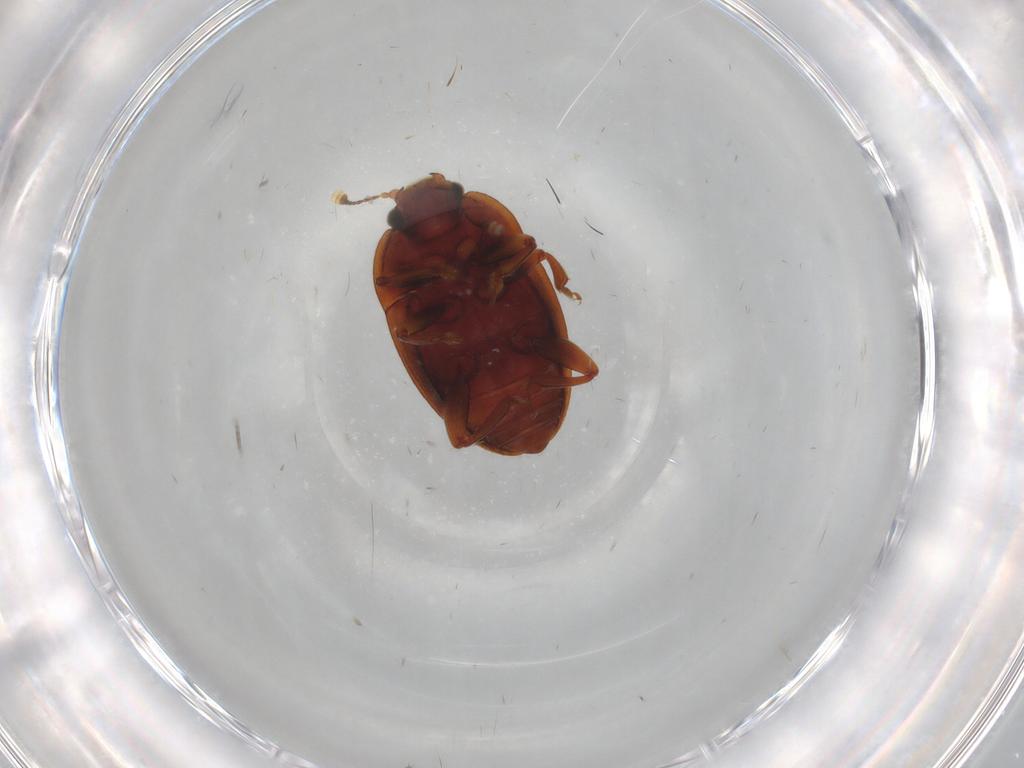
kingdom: Animalia
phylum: Arthropoda
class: Insecta
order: Coleoptera
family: Nitidulidae
